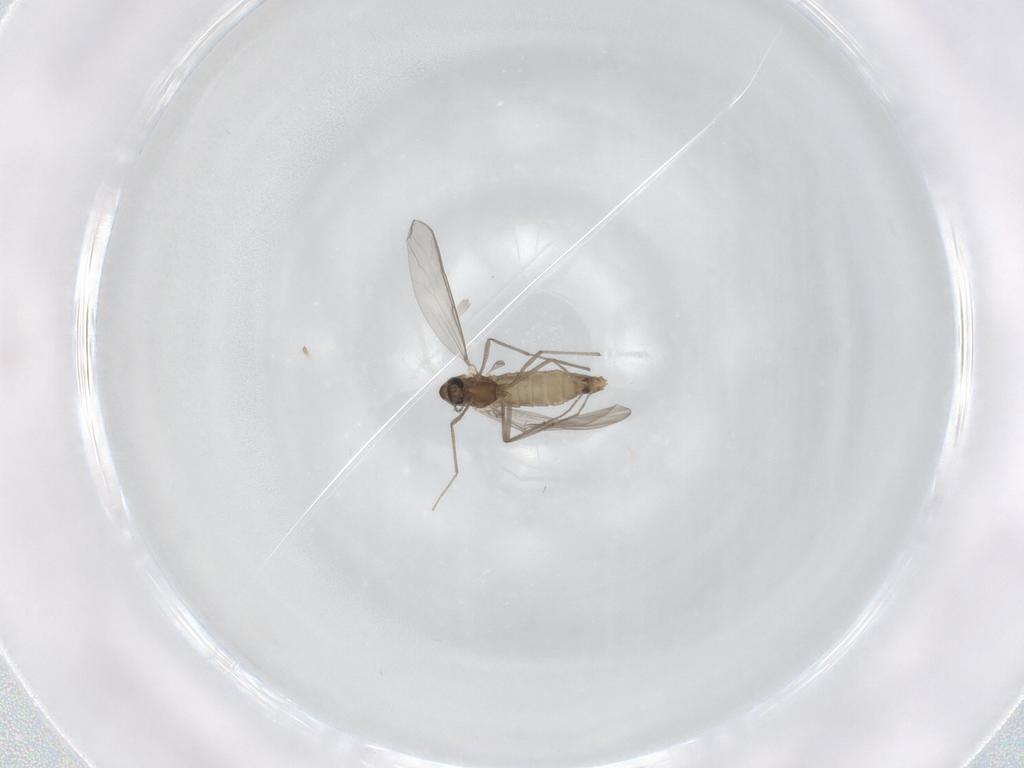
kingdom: Animalia
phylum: Arthropoda
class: Insecta
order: Diptera
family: Chironomidae
